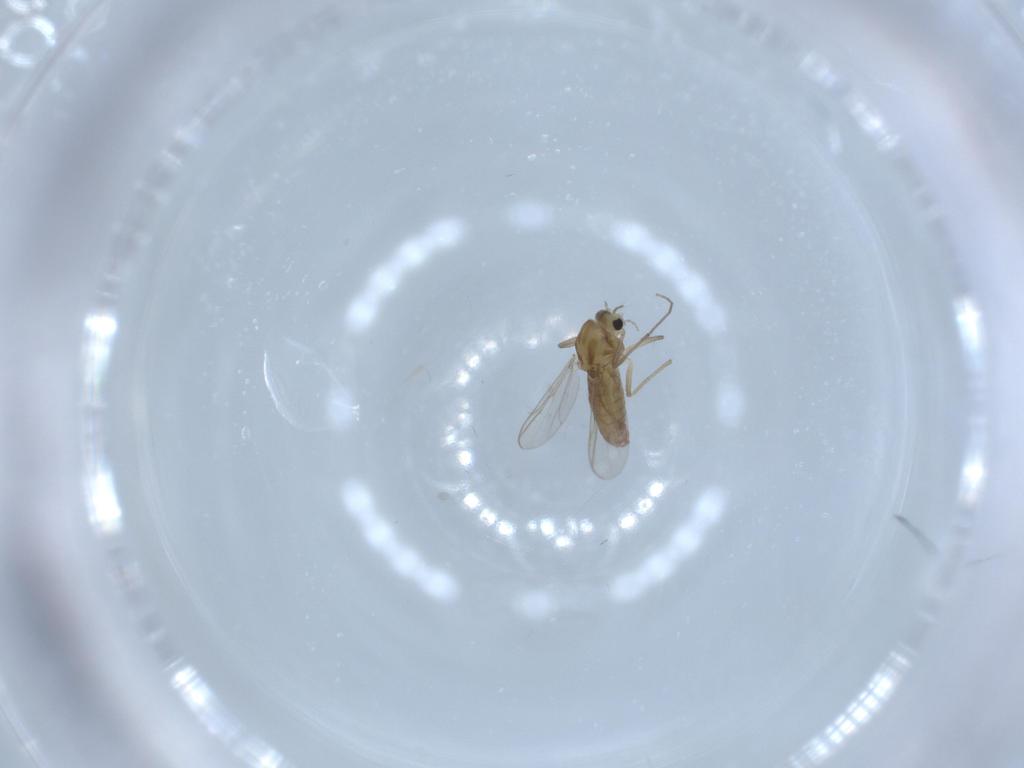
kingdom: Animalia
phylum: Arthropoda
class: Insecta
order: Diptera
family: Chironomidae
